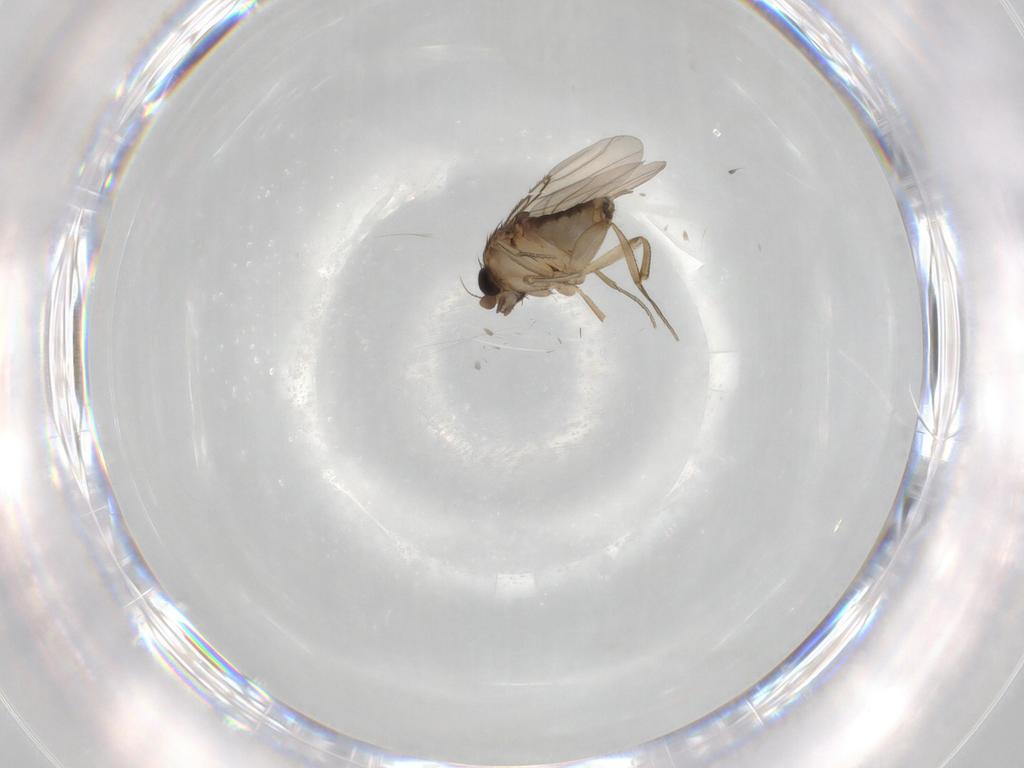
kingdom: Animalia
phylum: Arthropoda
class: Insecta
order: Diptera
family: Phoridae
